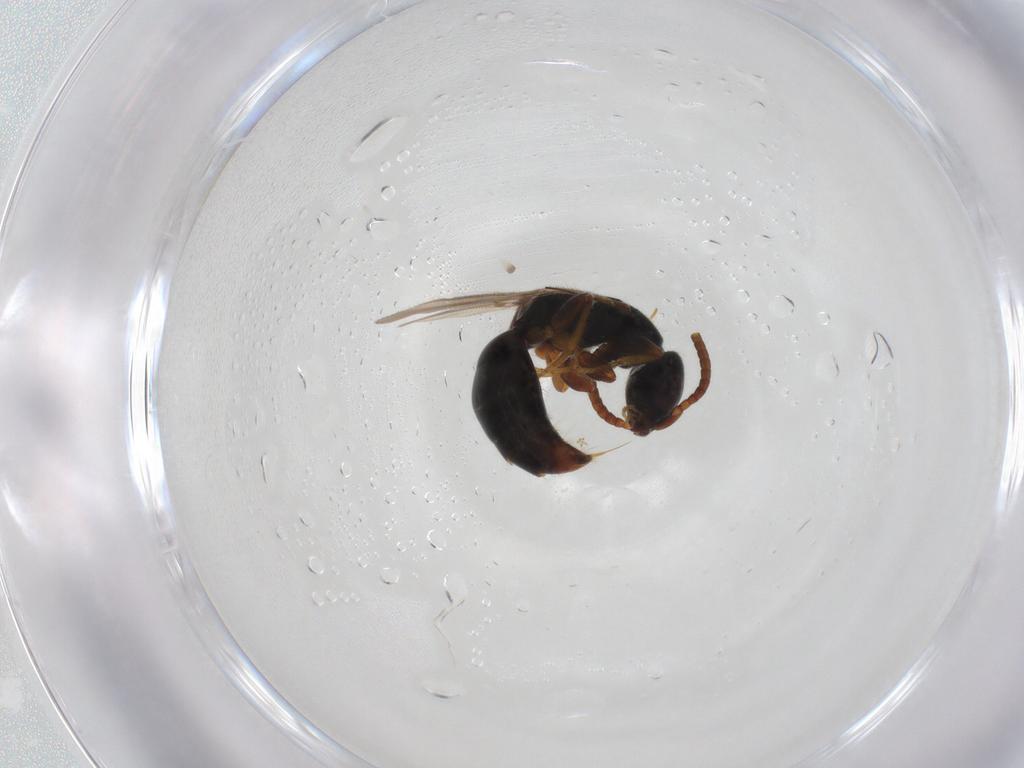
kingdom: Animalia
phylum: Arthropoda
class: Insecta
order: Hymenoptera
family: Bethylidae
